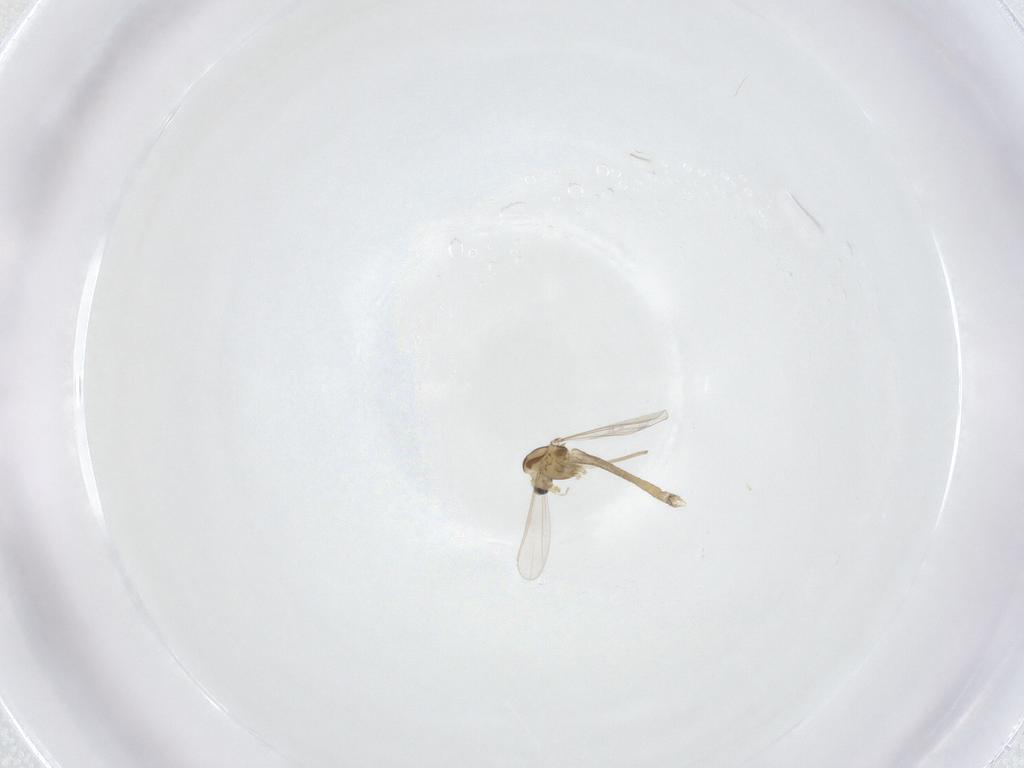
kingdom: Animalia
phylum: Arthropoda
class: Insecta
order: Diptera
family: Chironomidae
